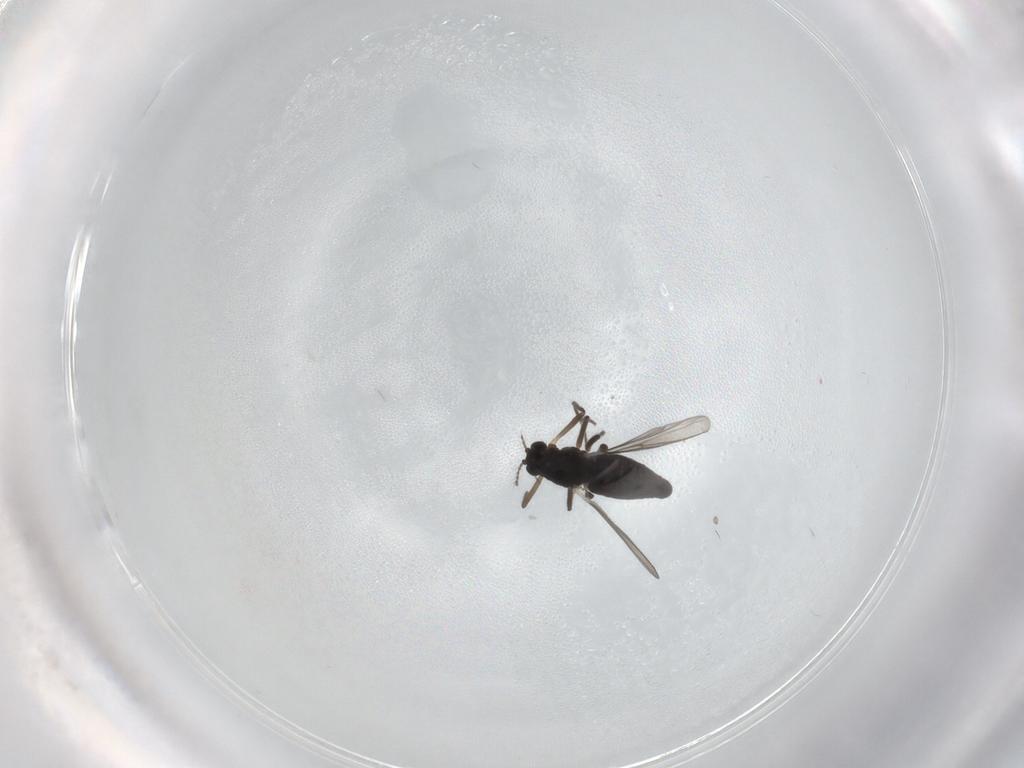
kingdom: Animalia
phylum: Arthropoda
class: Insecta
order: Diptera
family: Chironomidae
